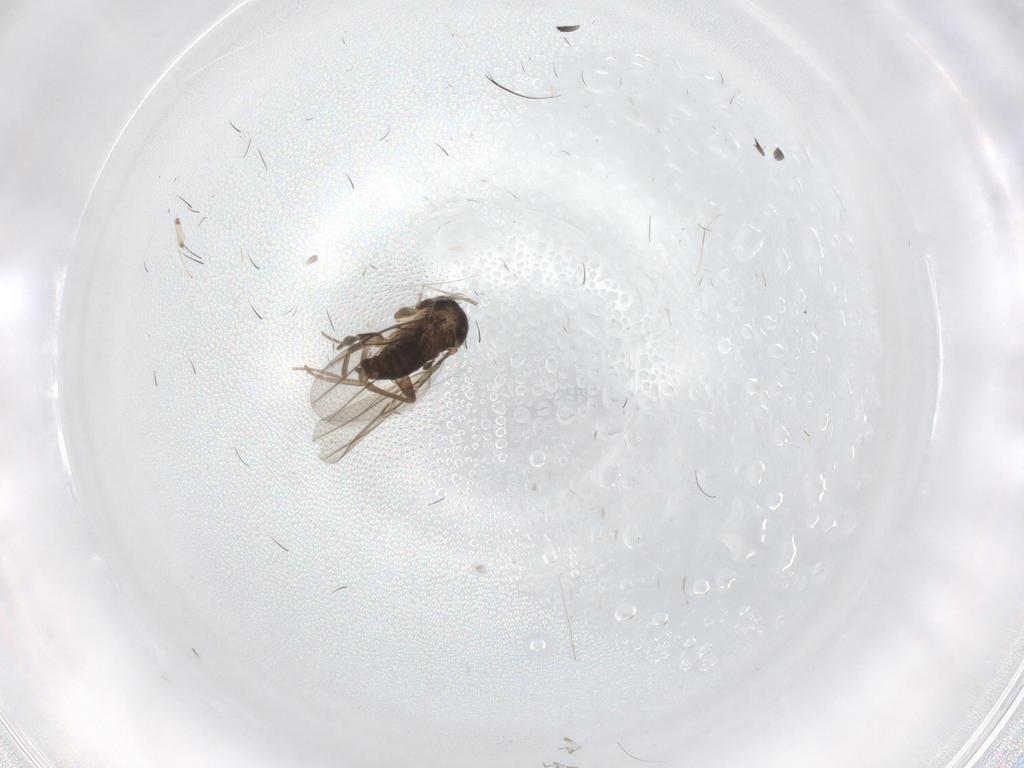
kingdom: Animalia
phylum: Arthropoda
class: Insecta
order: Diptera
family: Phoridae
